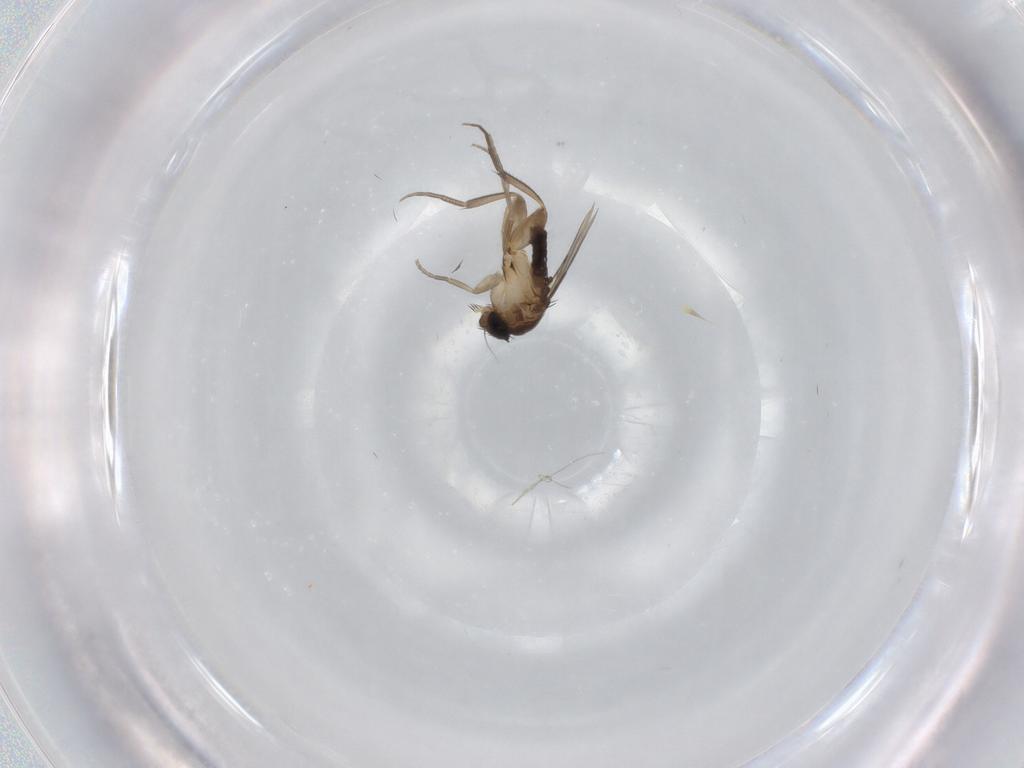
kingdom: Animalia
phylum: Arthropoda
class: Insecta
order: Diptera
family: Phoridae
